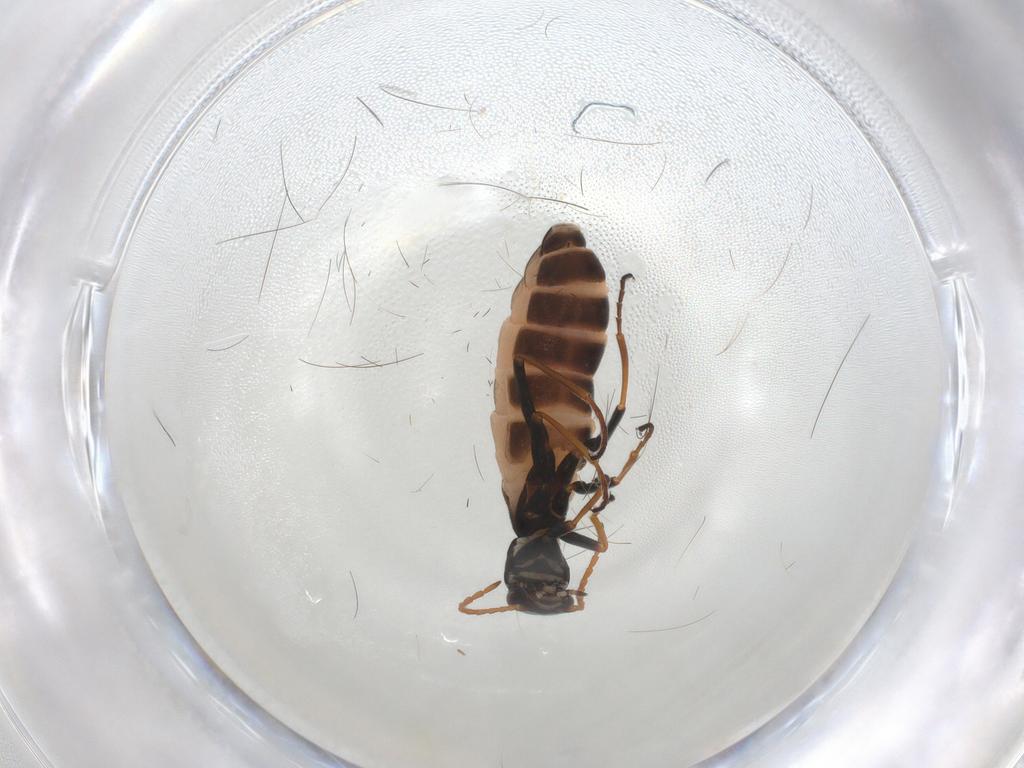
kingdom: Animalia
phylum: Arthropoda
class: Insecta
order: Coleoptera
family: Melyridae
